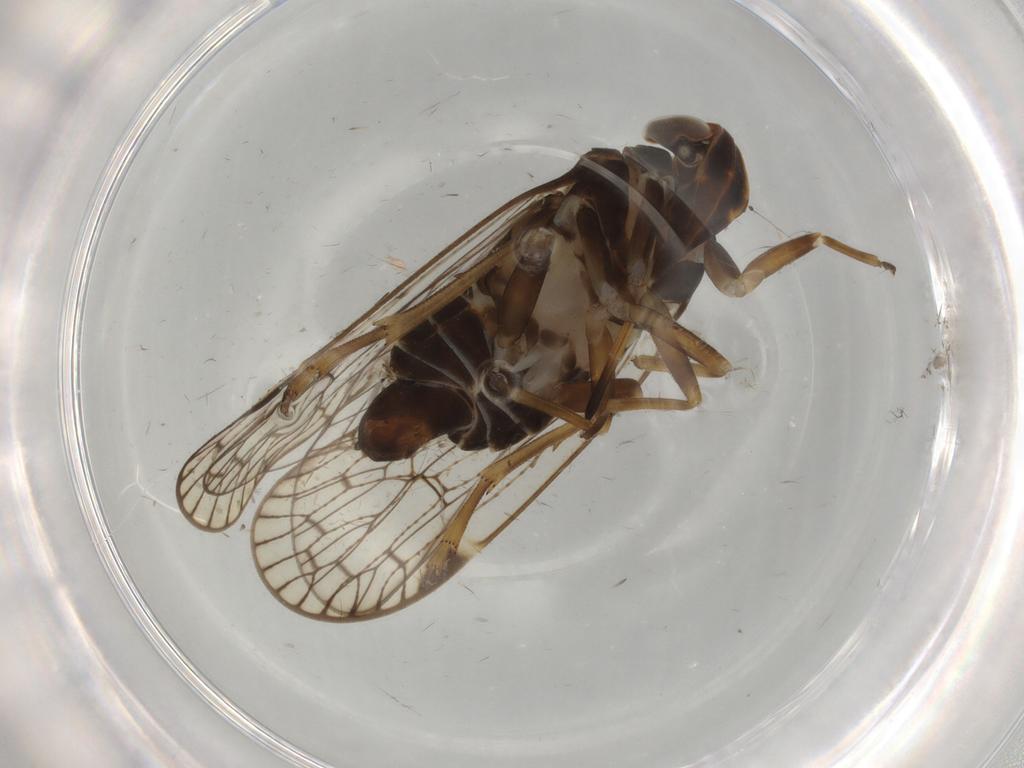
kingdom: Animalia
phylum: Arthropoda
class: Insecta
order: Hemiptera
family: Cixiidae
